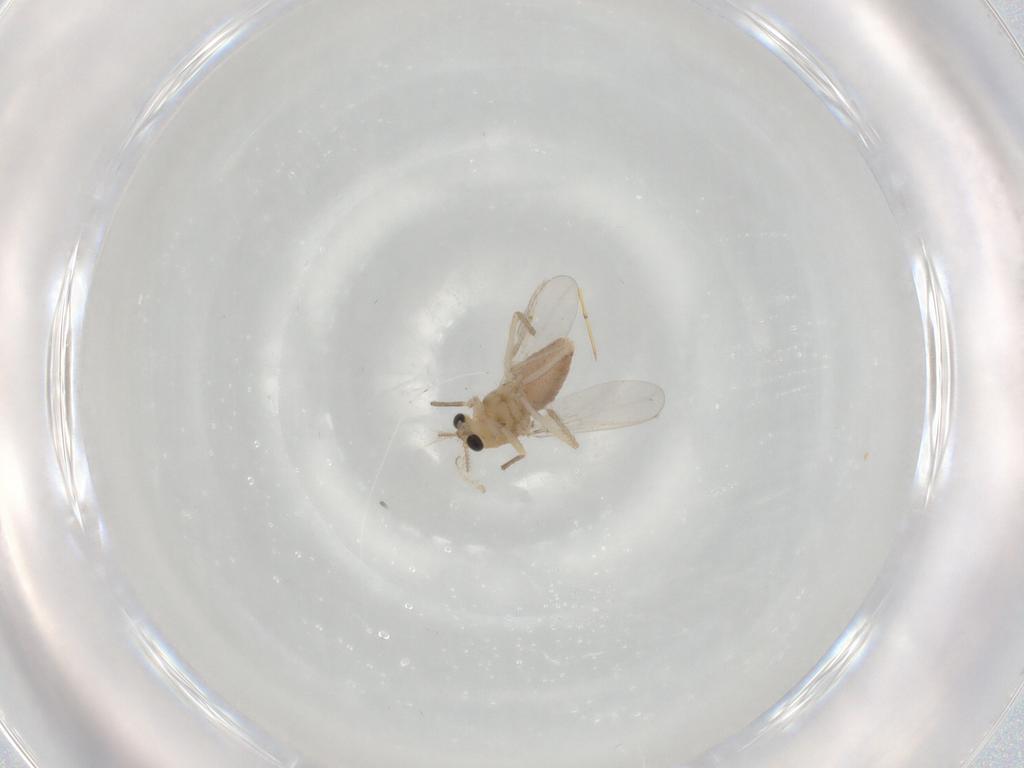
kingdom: Animalia
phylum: Arthropoda
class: Insecta
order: Diptera
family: Chironomidae
